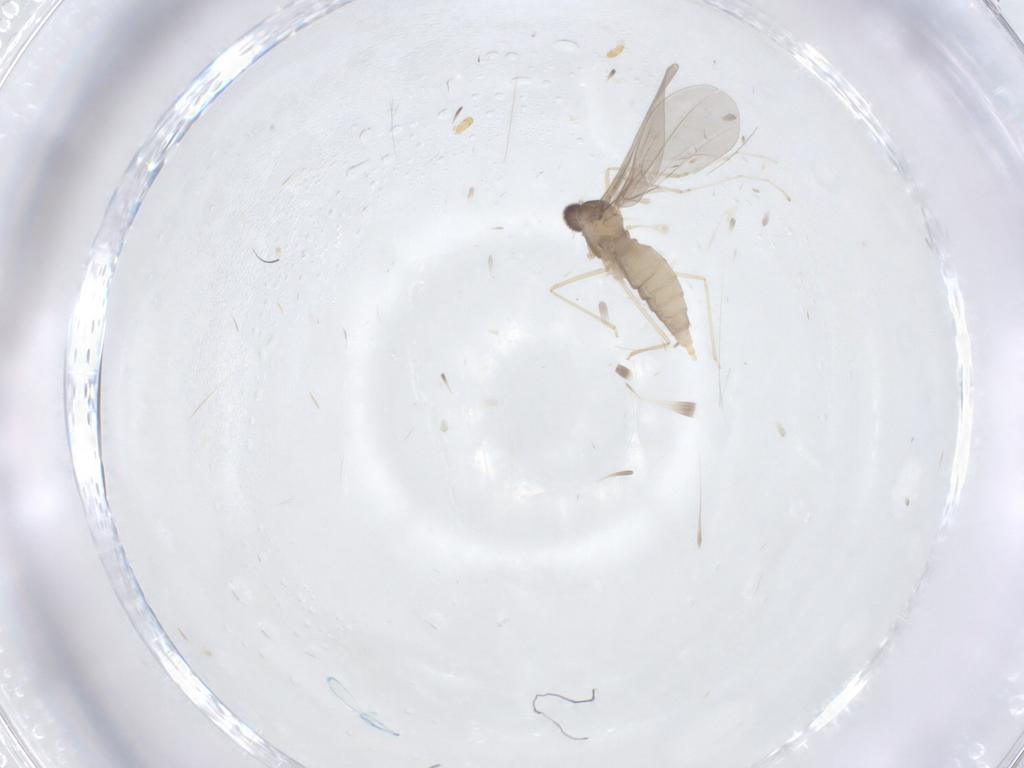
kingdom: Animalia
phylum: Arthropoda
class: Insecta
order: Diptera
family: Cecidomyiidae
